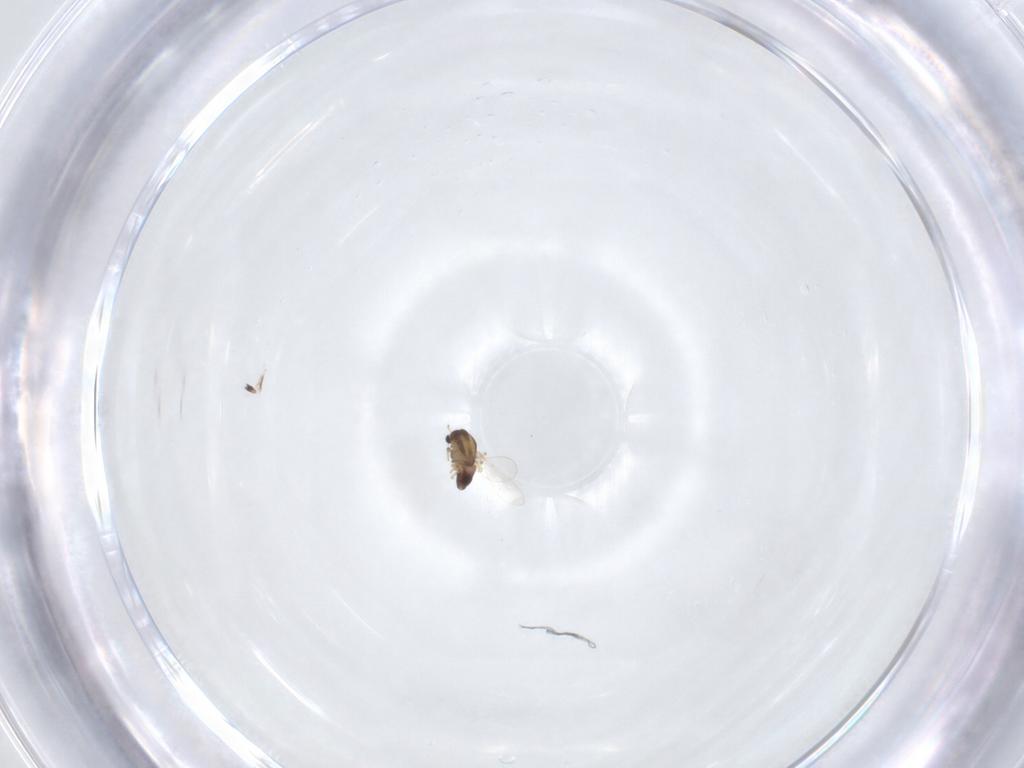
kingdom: Animalia
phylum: Arthropoda
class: Insecta
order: Diptera
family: Chironomidae
